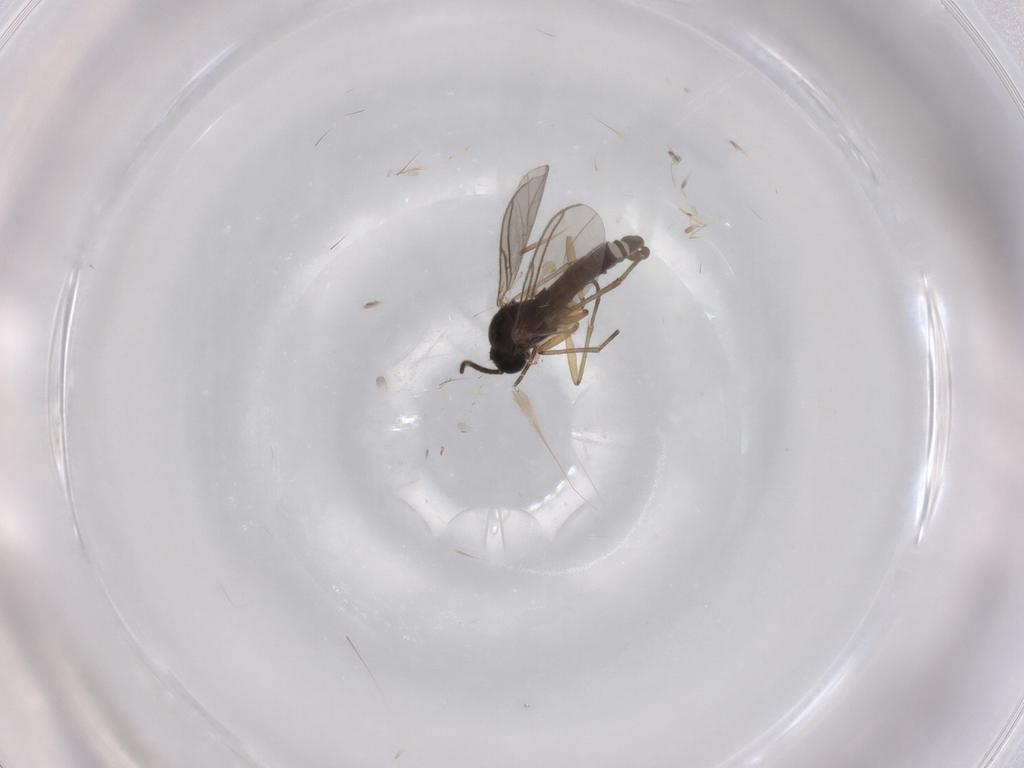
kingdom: Animalia
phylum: Arthropoda
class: Insecta
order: Diptera
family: Sciaridae
